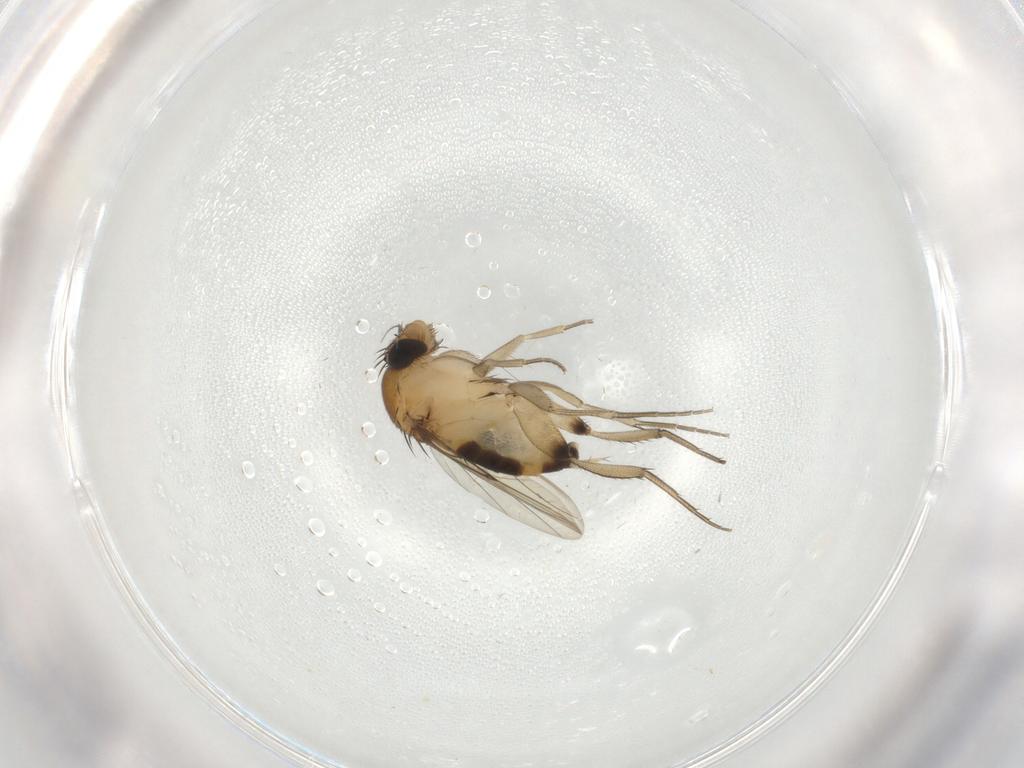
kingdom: Animalia
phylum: Arthropoda
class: Insecta
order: Diptera
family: Phoridae
